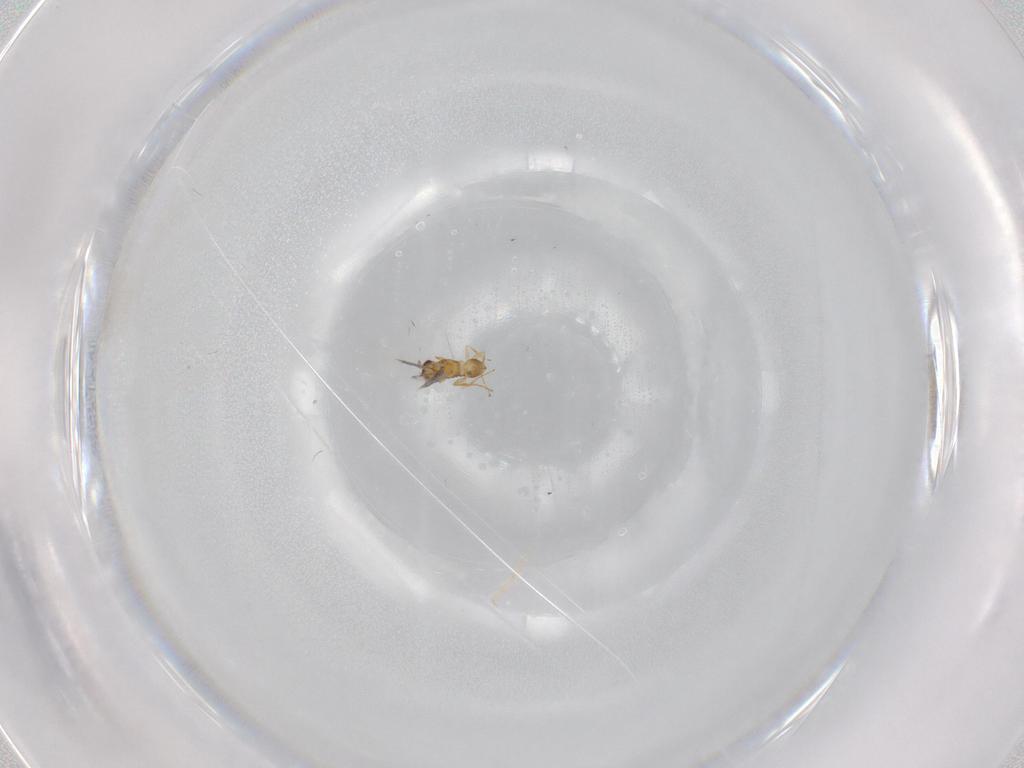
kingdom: Animalia
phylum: Arthropoda
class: Insecta
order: Hymenoptera
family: Mymaridae
